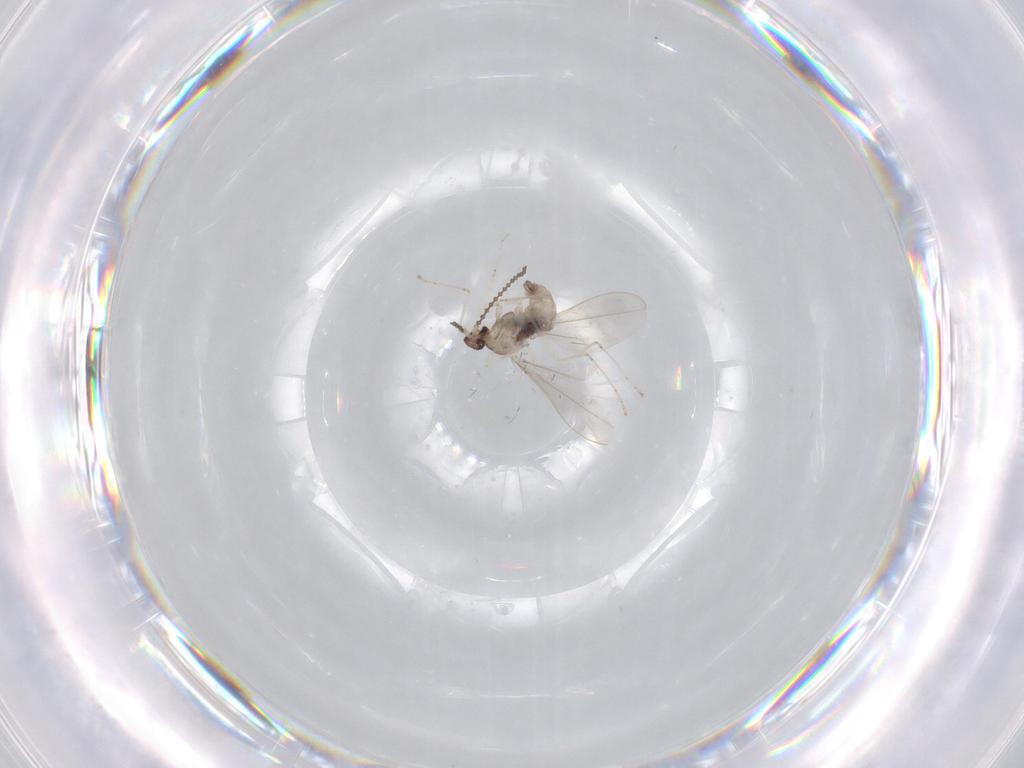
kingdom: Animalia
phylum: Arthropoda
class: Insecta
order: Diptera
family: Cecidomyiidae
